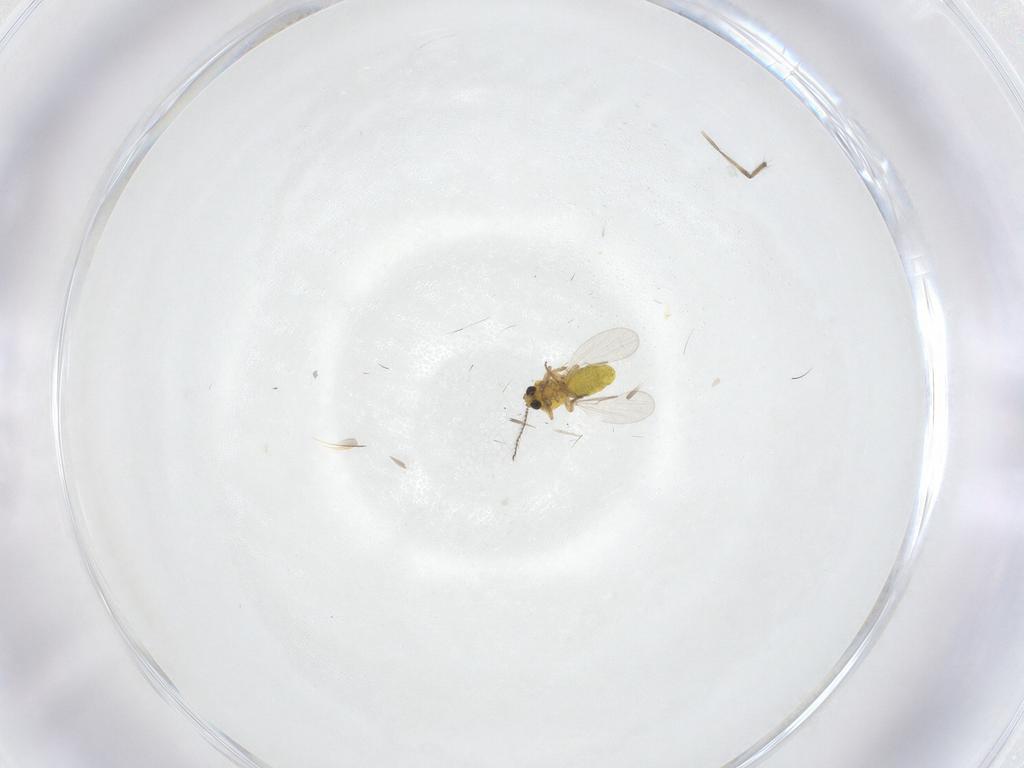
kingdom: Animalia
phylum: Arthropoda
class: Insecta
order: Diptera
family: Ceratopogonidae
